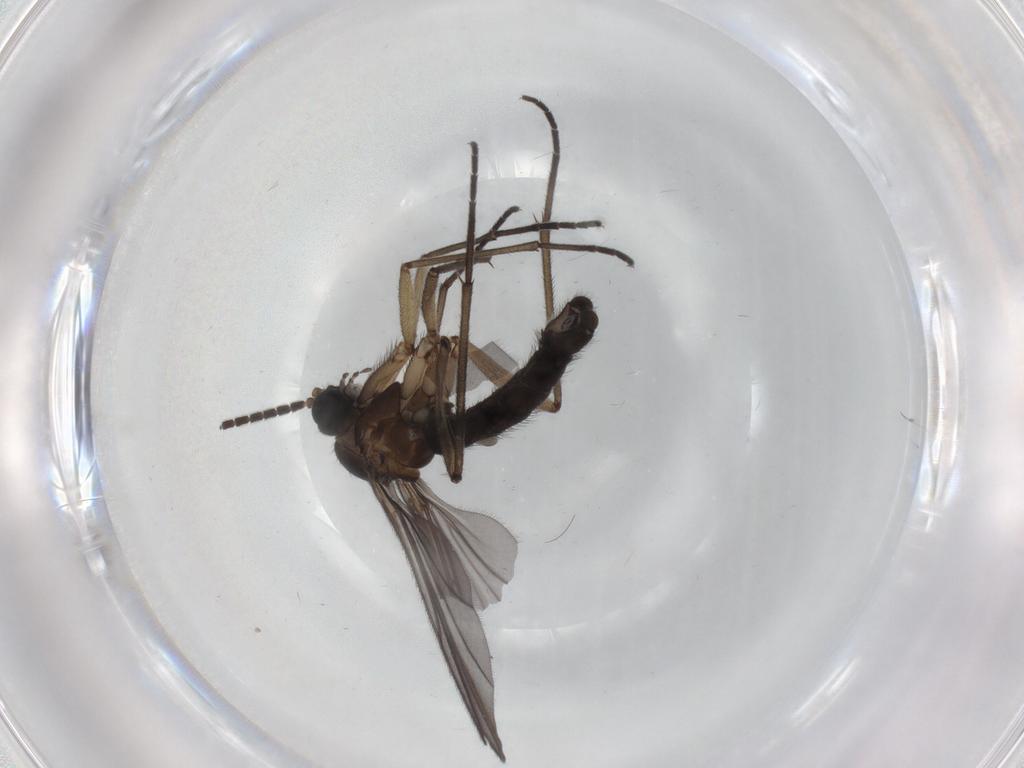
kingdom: Animalia
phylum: Arthropoda
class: Insecta
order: Diptera
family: Sciaridae
